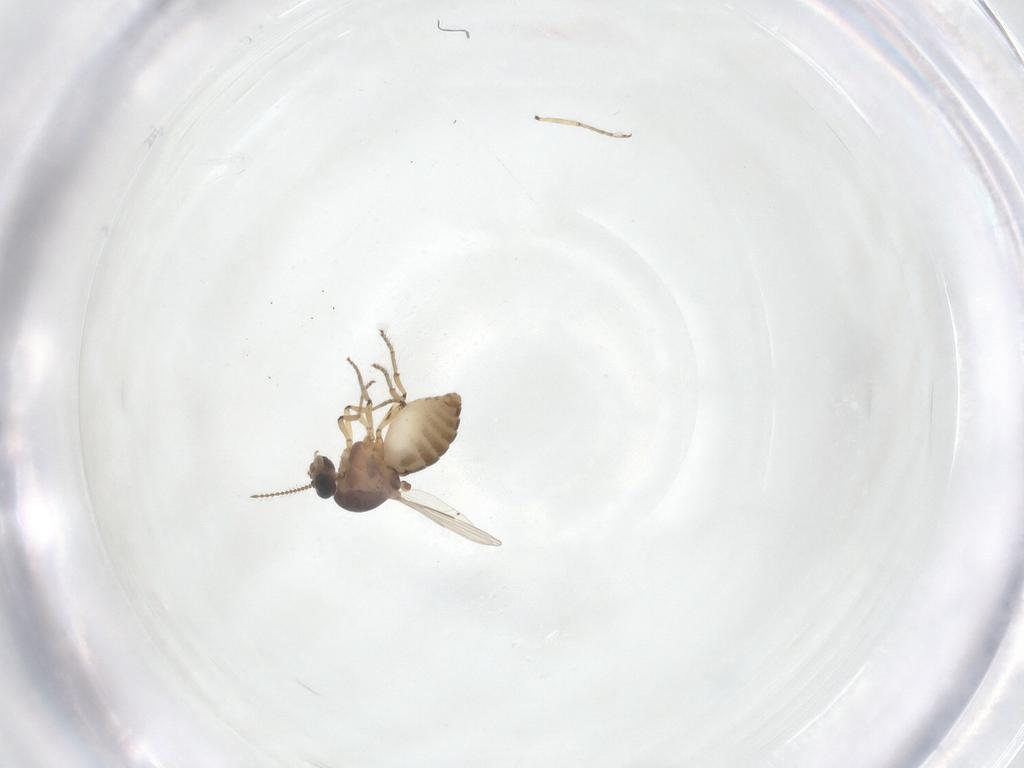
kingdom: Animalia
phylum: Arthropoda
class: Insecta
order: Diptera
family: Ceratopogonidae
